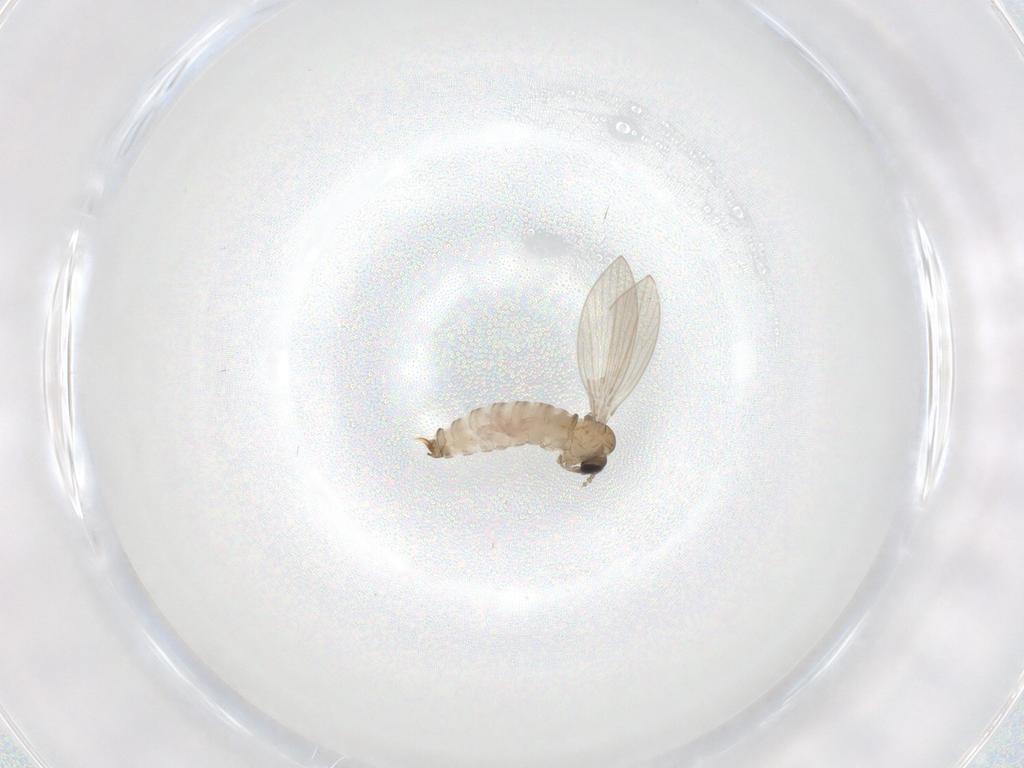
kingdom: Animalia
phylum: Arthropoda
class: Insecta
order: Diptera
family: Psychodidae
